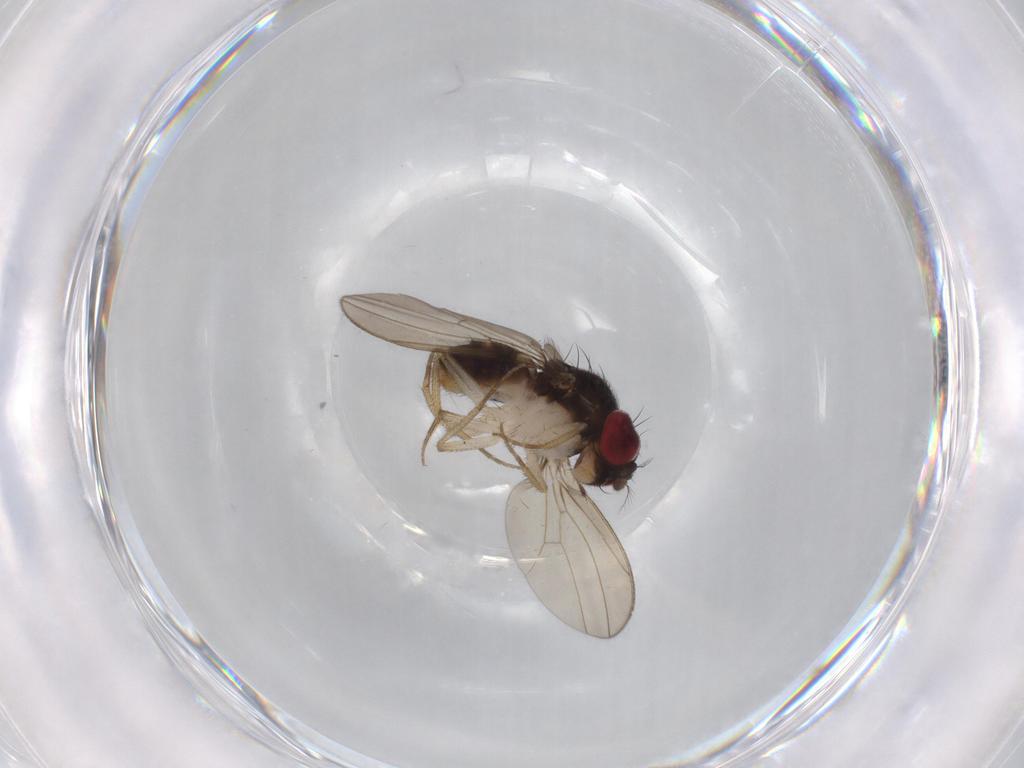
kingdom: Animalia
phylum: Arthropoda
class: Insecta
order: Diptera
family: Drosophilidae
